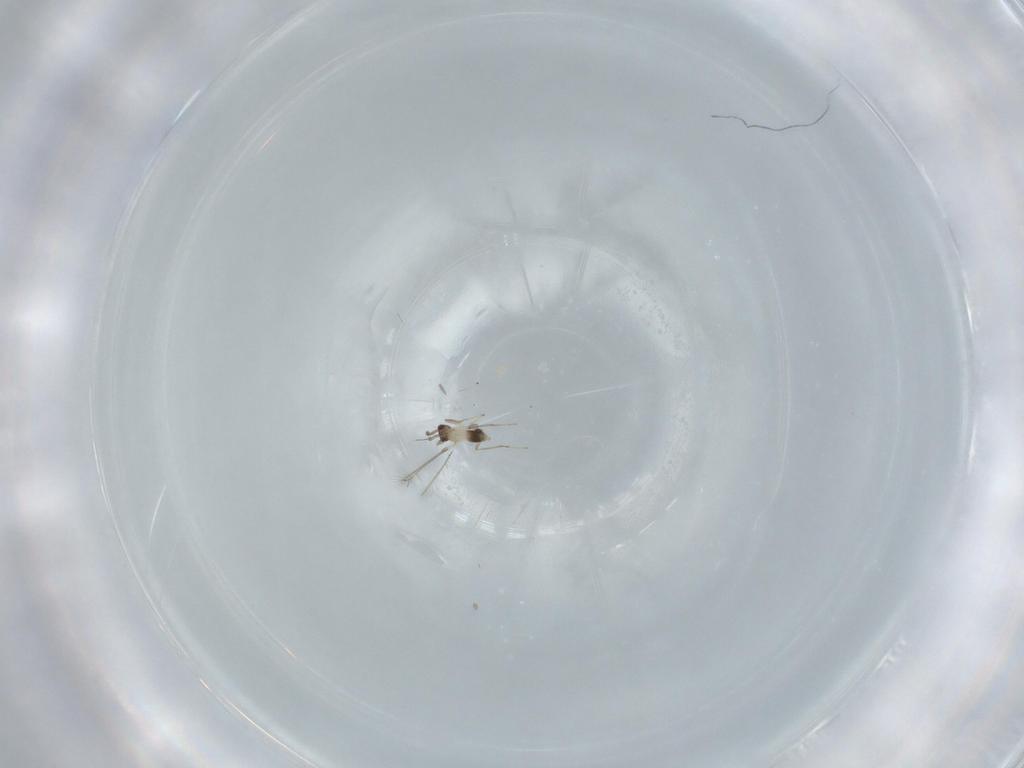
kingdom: Animalia
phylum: Arthropoda
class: Insecta
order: Hymenoptera
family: Mymaridae
